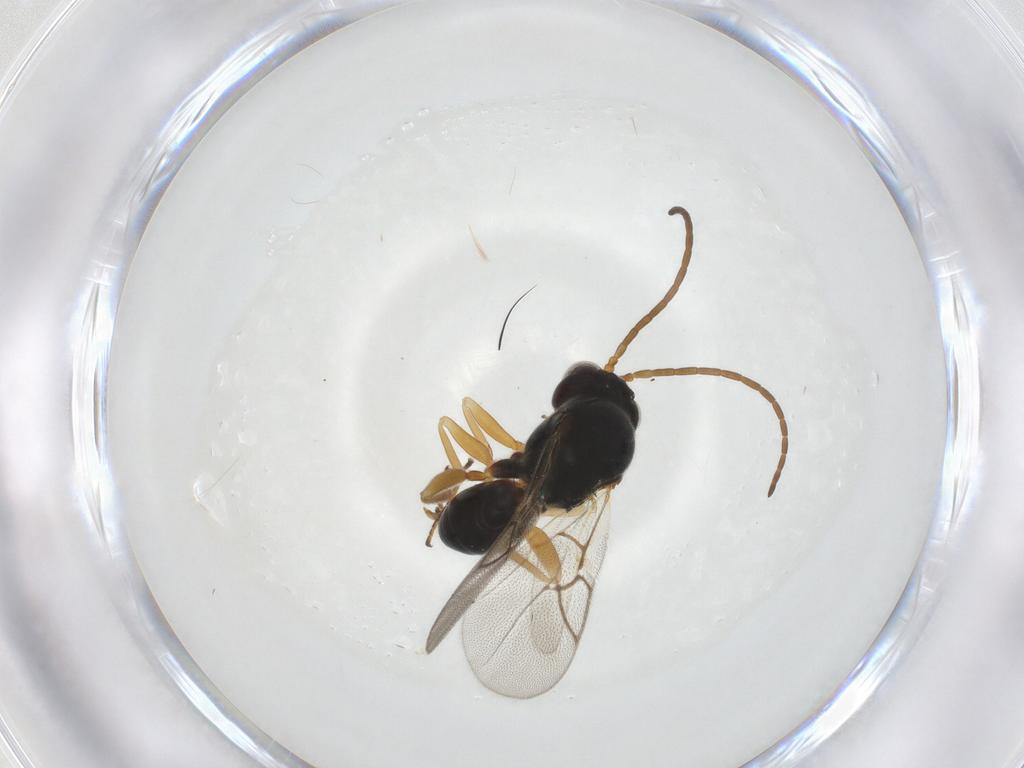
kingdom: Animalia
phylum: Arthropoda
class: Insecta
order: Hymenoptera
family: Figitidae
